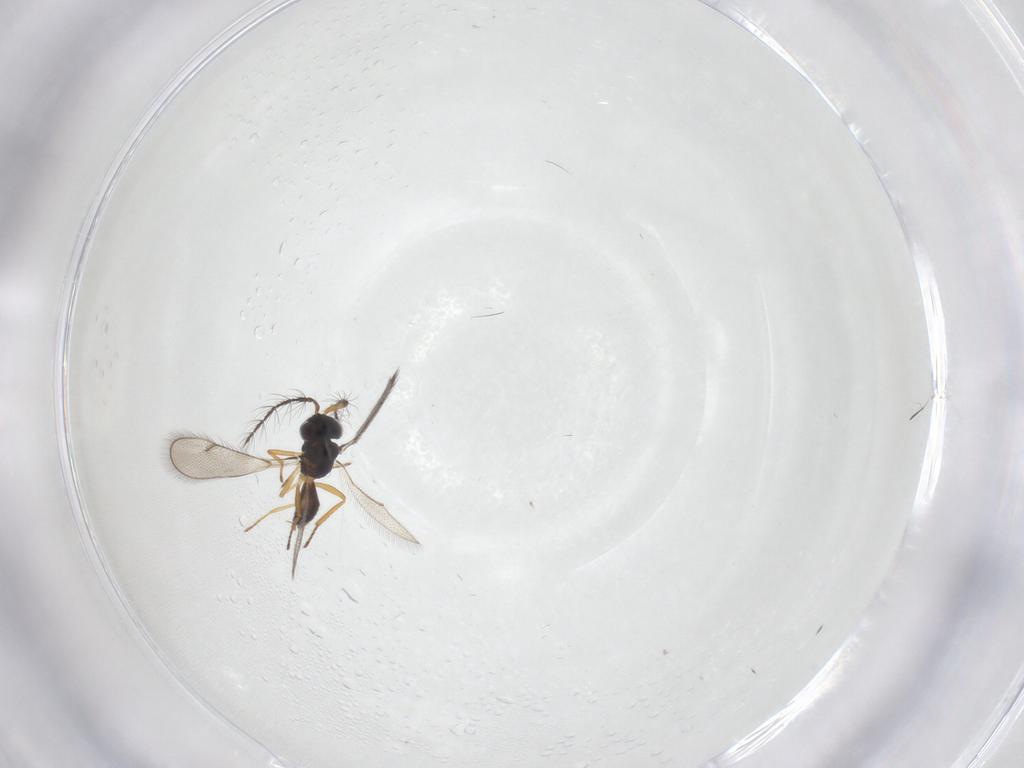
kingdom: Animalia
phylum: Arthropoda
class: Insecta
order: Hymenoptera
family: Eulophidae
